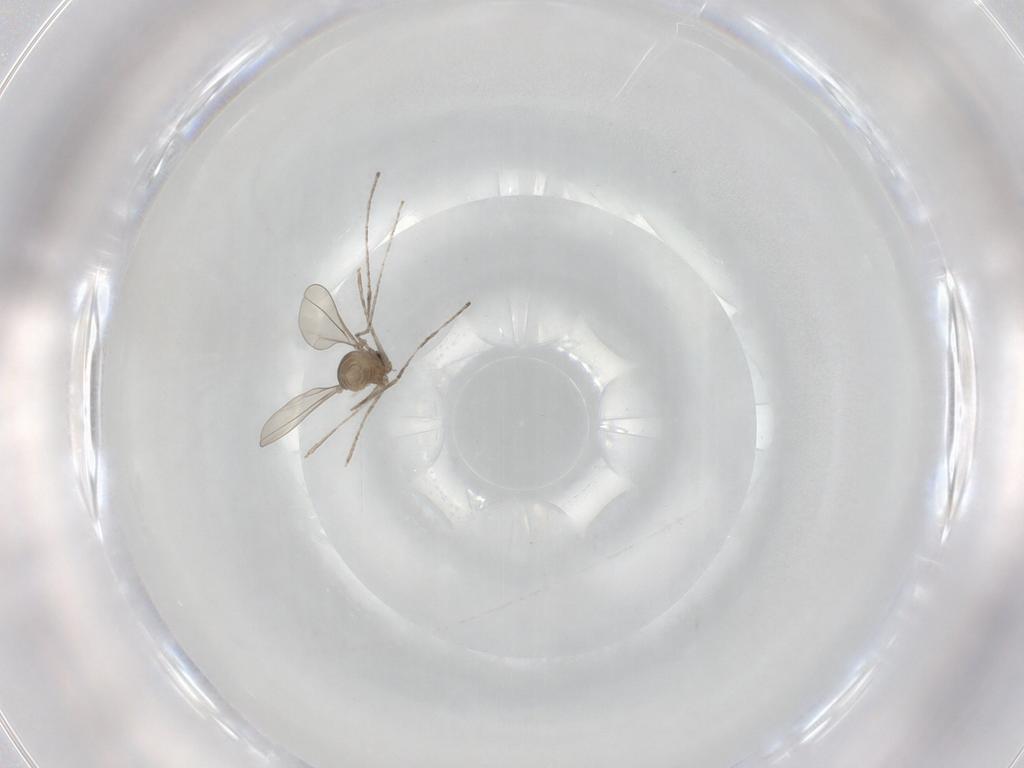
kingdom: Animalia
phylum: Arthropoda
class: Insecta
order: Diptera
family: Cecidomyiidae
